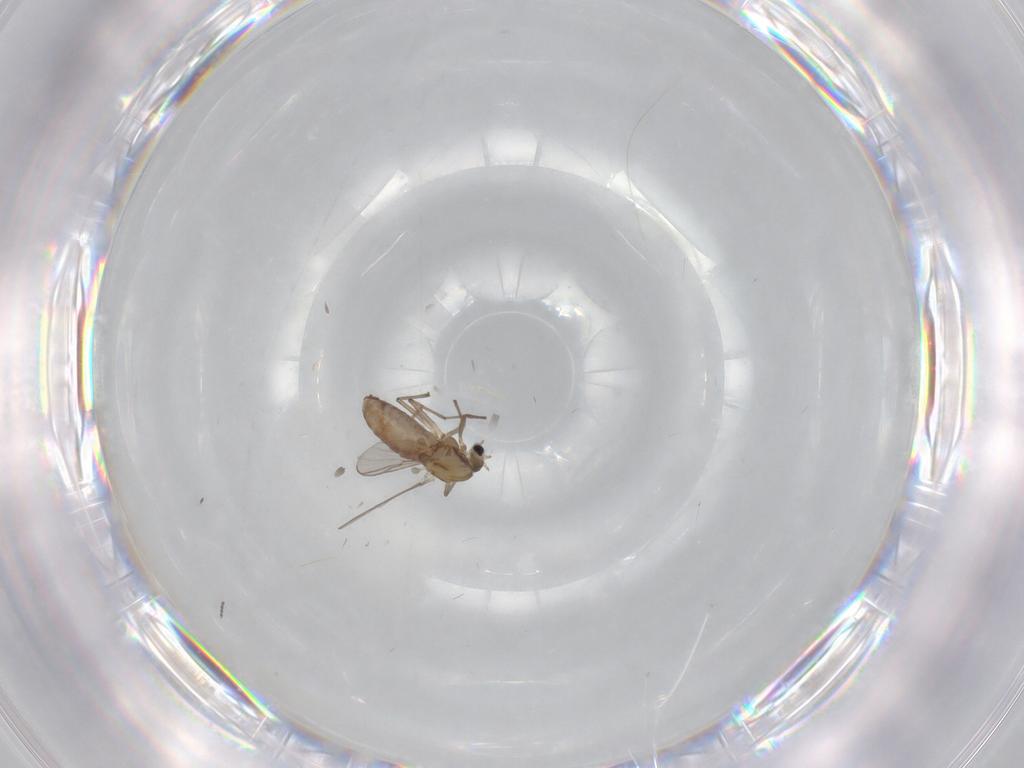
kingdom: Animalia
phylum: Arthropoda
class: Insecta
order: Diptera
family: Chironomidae
